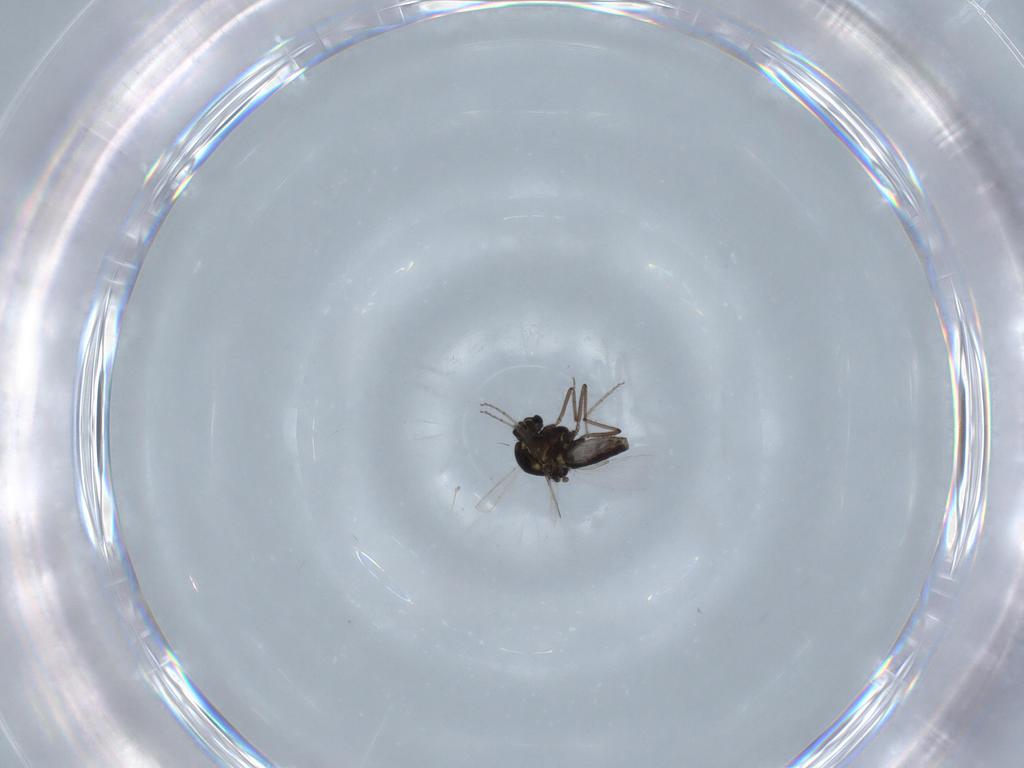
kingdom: Animalia
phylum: Arthropoda
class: Insecta
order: Diptera
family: Ceratopogonidae
